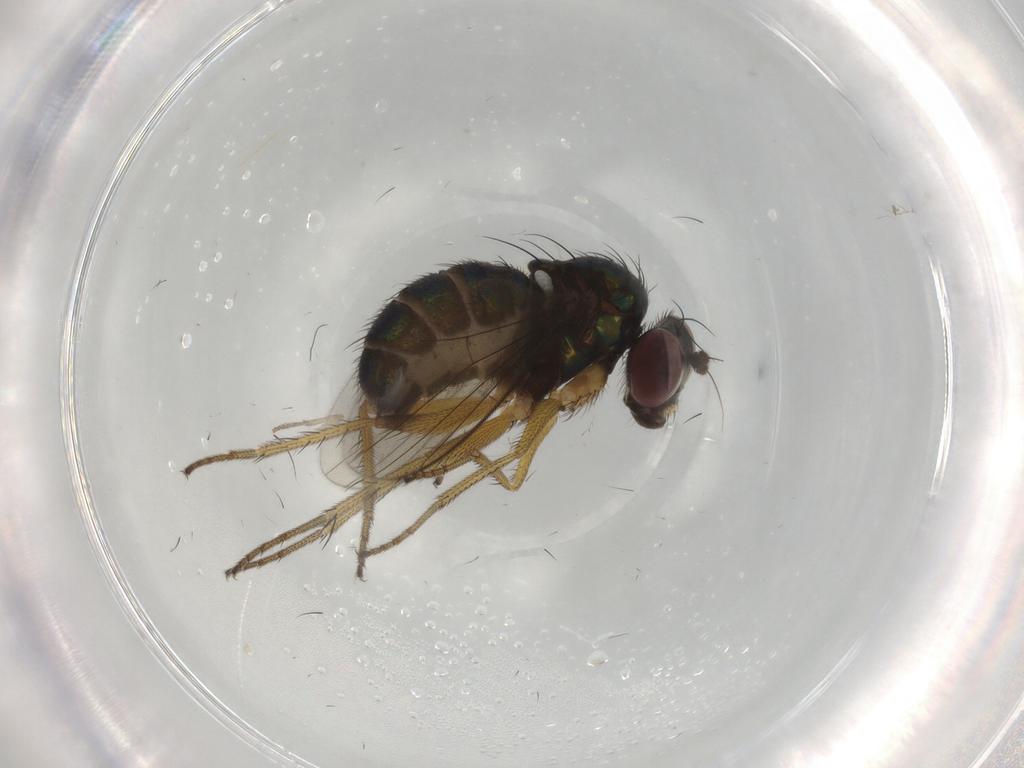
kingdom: Animalia
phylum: Arthropoda
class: Insecta
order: Diptera
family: Dolichopodidae
